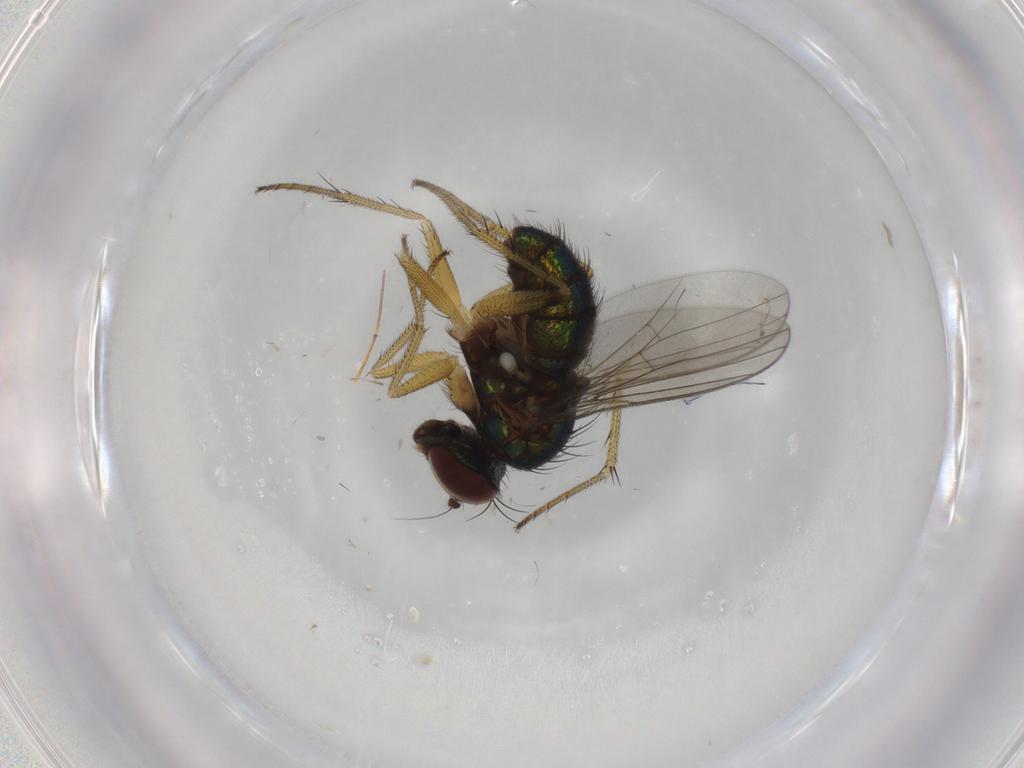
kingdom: Animalia
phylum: Arthropoda
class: Insecta
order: Diptera
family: Dolichopodidae
